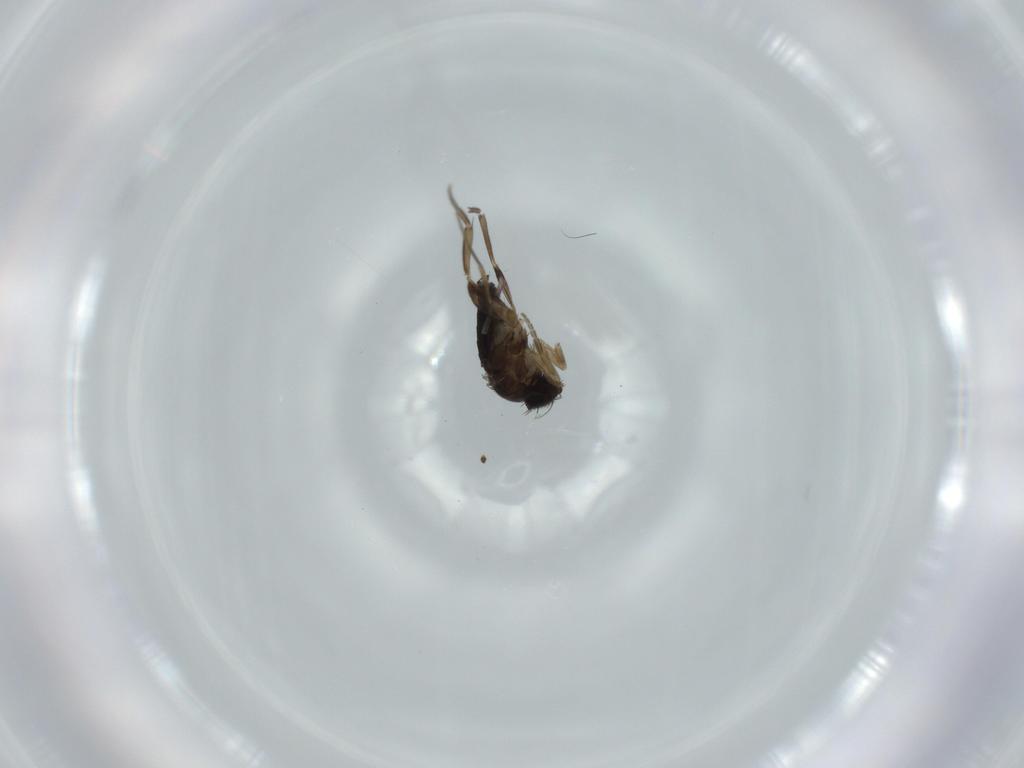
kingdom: Animalia
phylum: Arthropoda
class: Insecta
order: Diptera
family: Phoridae
